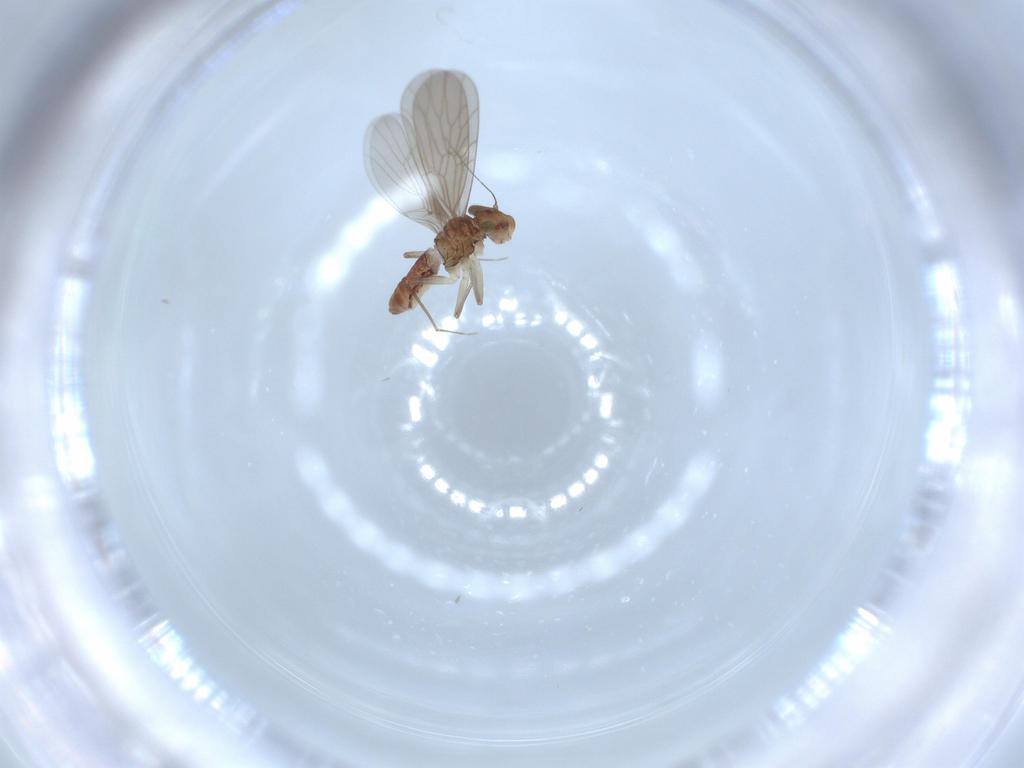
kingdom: Animalia
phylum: Arthropoda
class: Insecta
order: Psocodea
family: Lepidopsocidae
